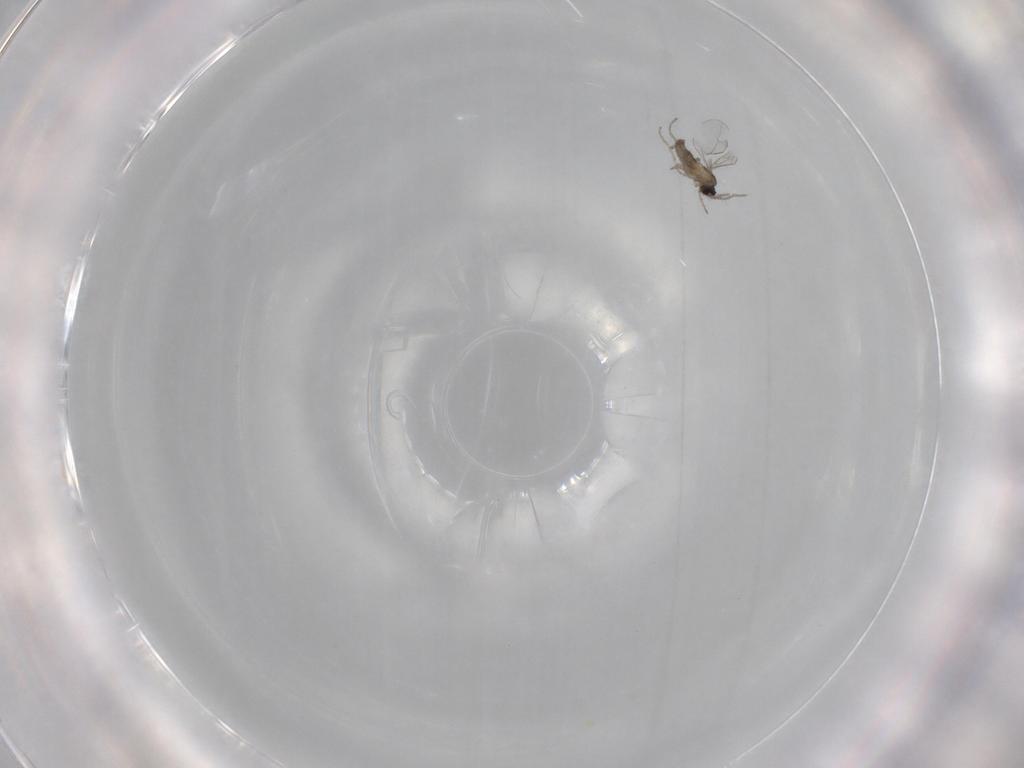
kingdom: Animalia
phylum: Arthropoda
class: Insecta
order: Diptera
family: Cecidomyiidae
